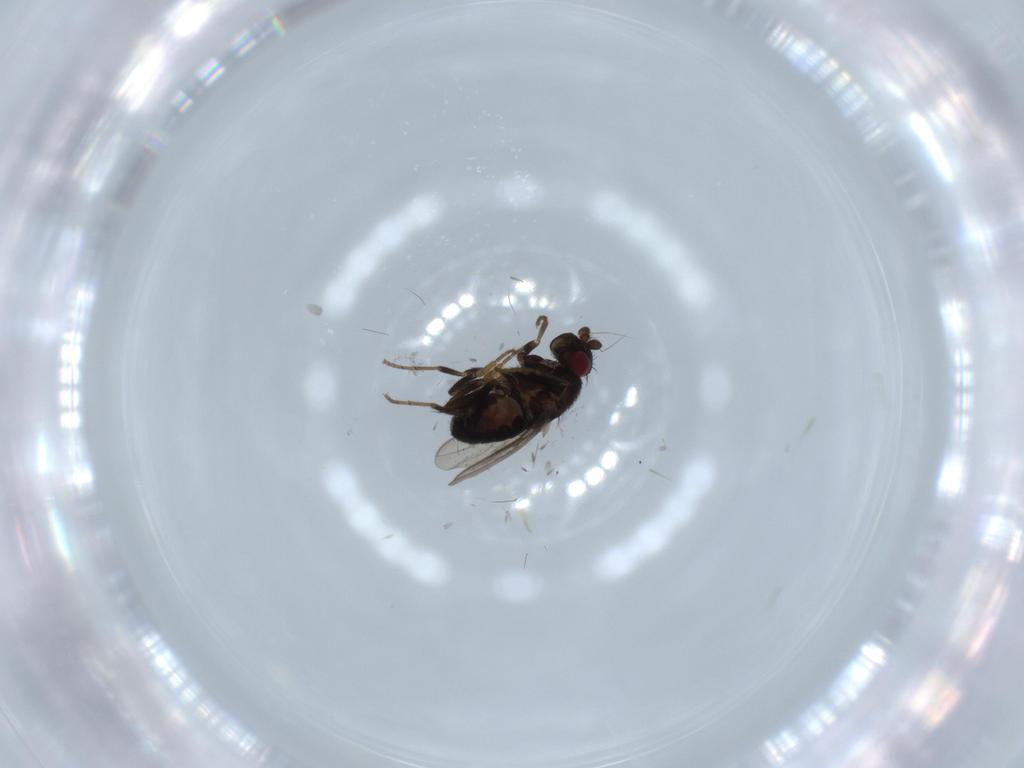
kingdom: Animalia
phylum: Arthropoda
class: Insecta
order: Diptera
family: Sphaeroceridae
